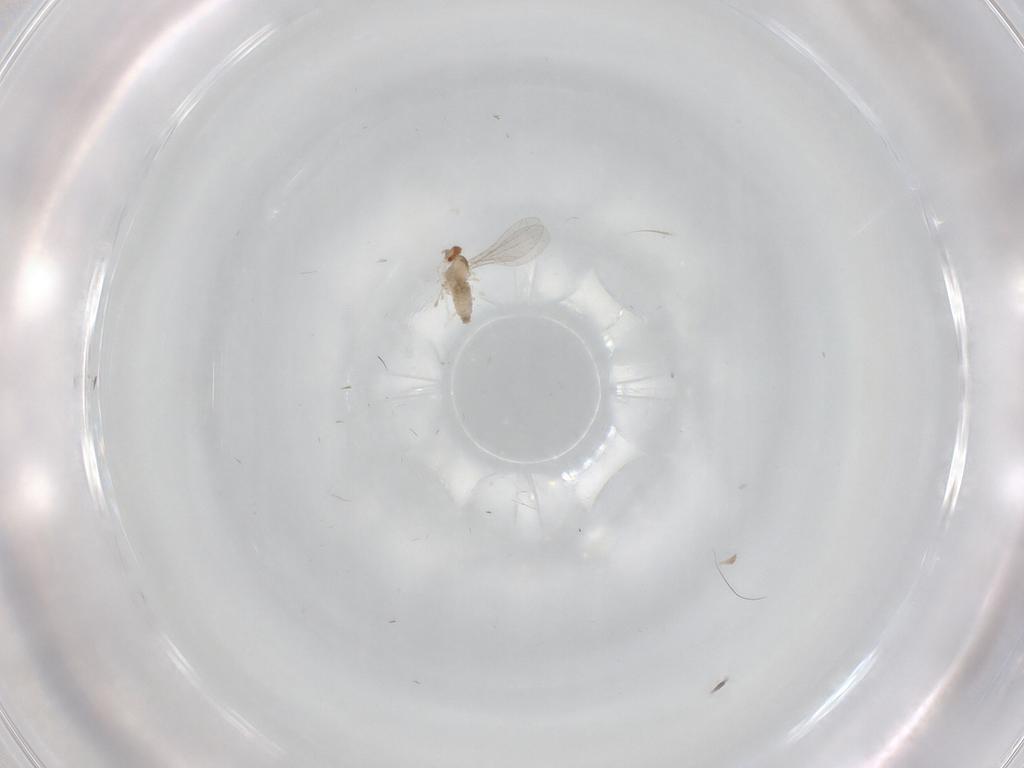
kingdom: Animalia
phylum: Arthropoda
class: Insecta
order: Diptera
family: Cecidomyiidae
